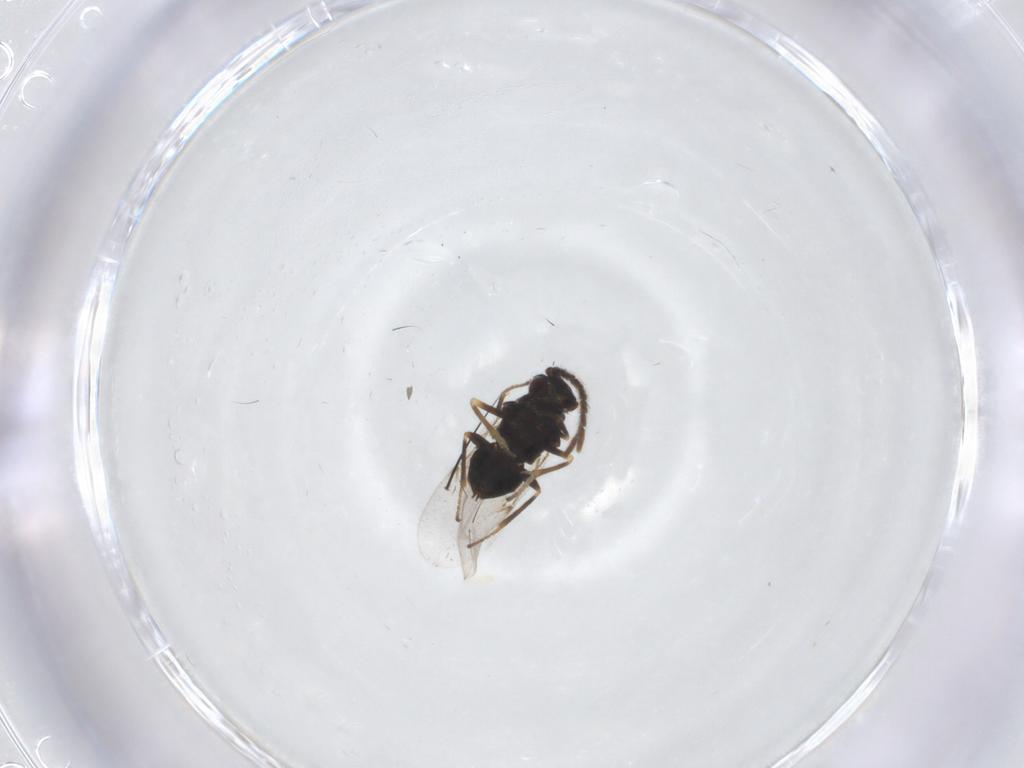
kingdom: Animalia
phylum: Arthropoda
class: Insecta
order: Hymenoptera
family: Encyrtidae
